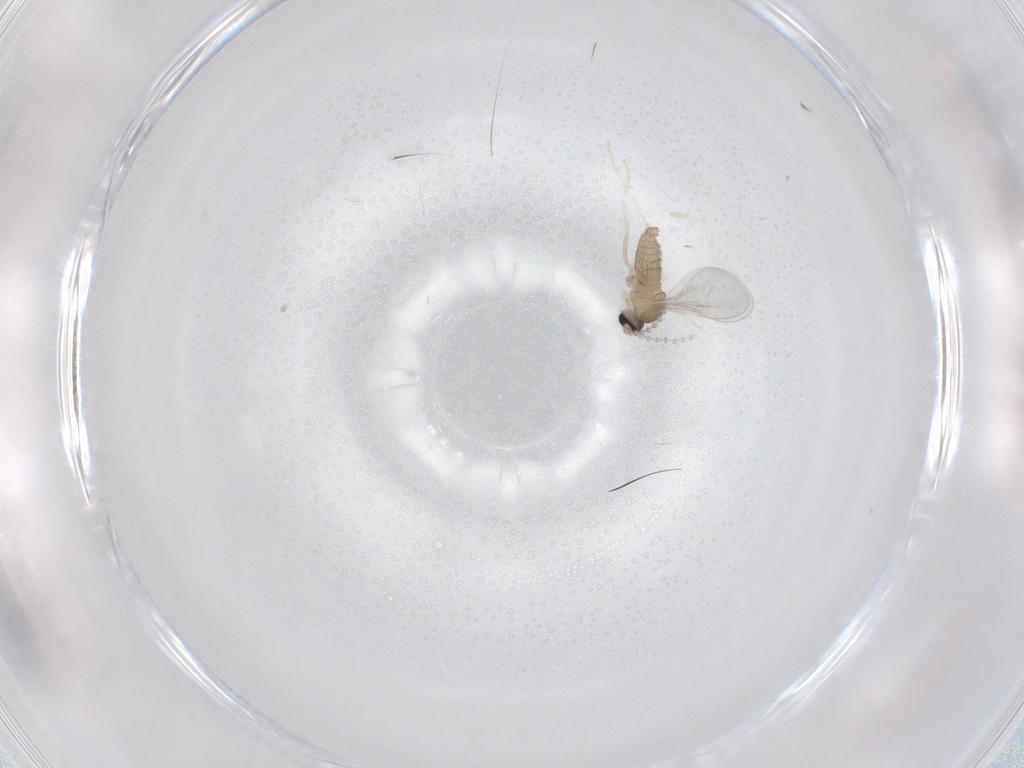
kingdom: Animalia
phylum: Arthropoda
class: Insecta
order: Diptera
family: Cecidomyiidae
